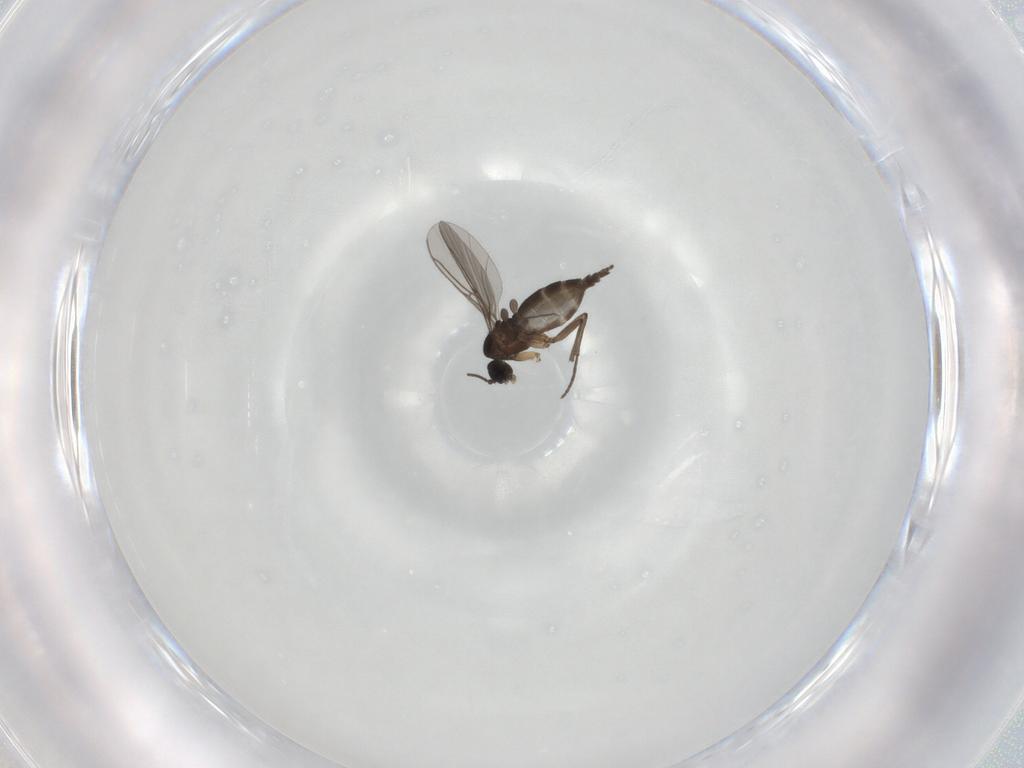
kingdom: Animalia
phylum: Arthropoda
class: Insecta
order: Diptera
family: Sciaridae
